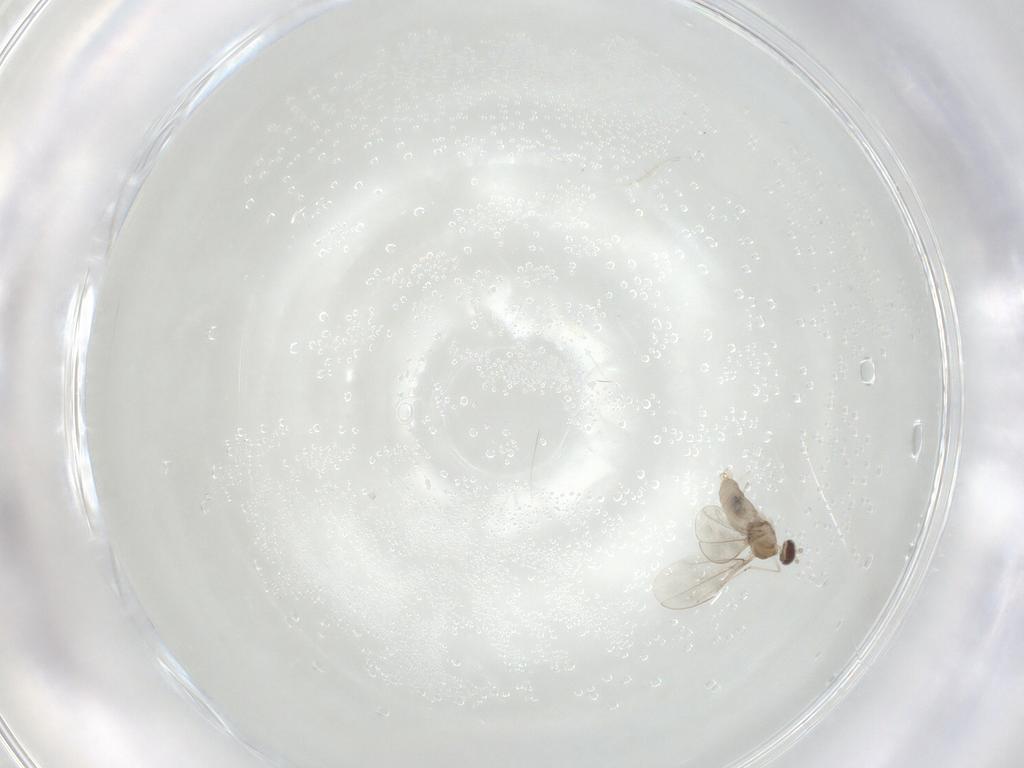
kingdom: Animalia
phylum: Arthropoda
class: Insecta
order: Diptera
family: Cecidomyiidae
